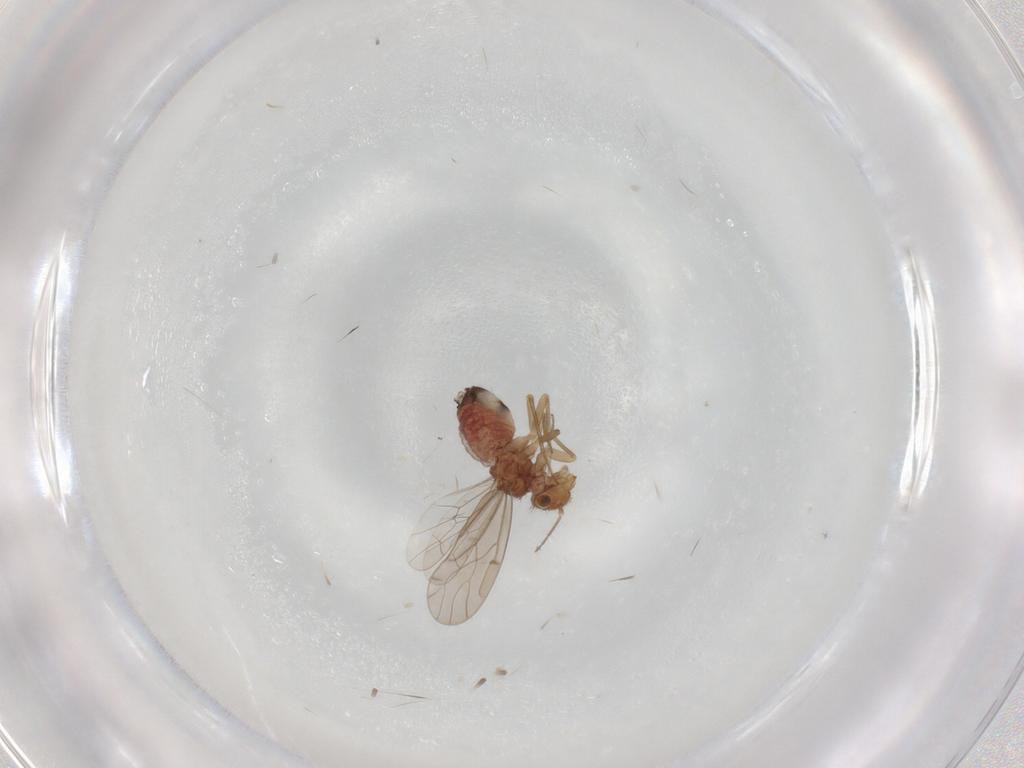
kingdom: Animalia
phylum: Arthropoda
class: Insecta
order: Psocodea
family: Ectopsocidae
